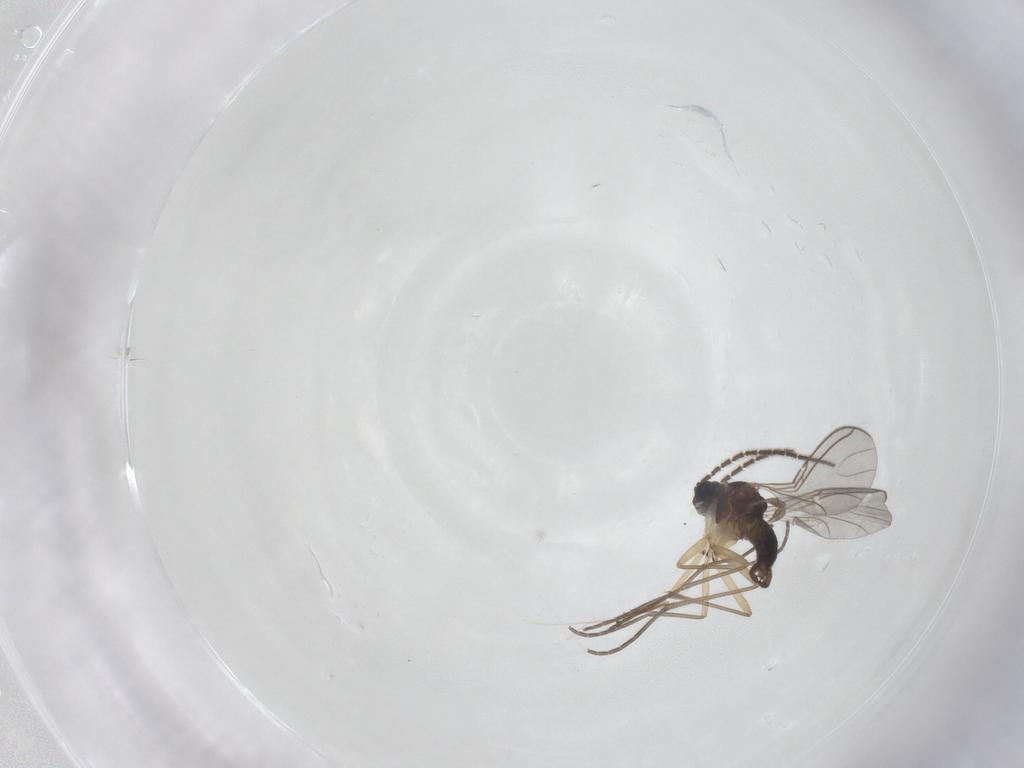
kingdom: Animalia
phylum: Arthropoda
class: Insecta
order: Diptera
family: Sciaridae
